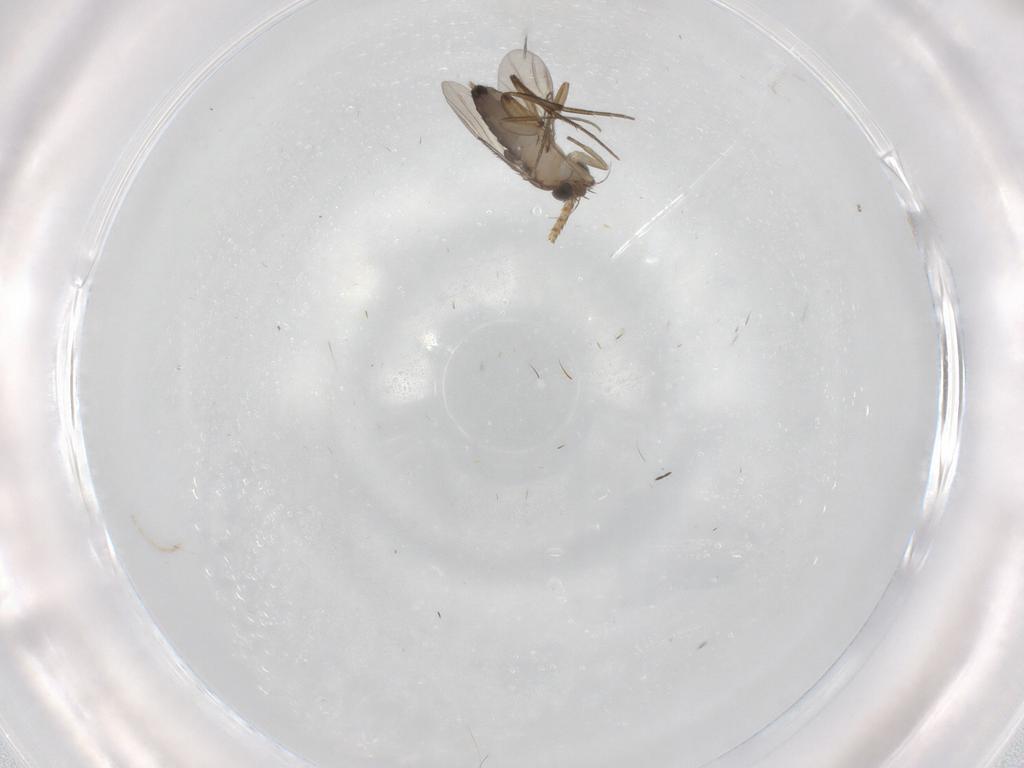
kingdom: Animalia
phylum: Arthropoda
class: Insecta
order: Diptera
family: Phoridae
